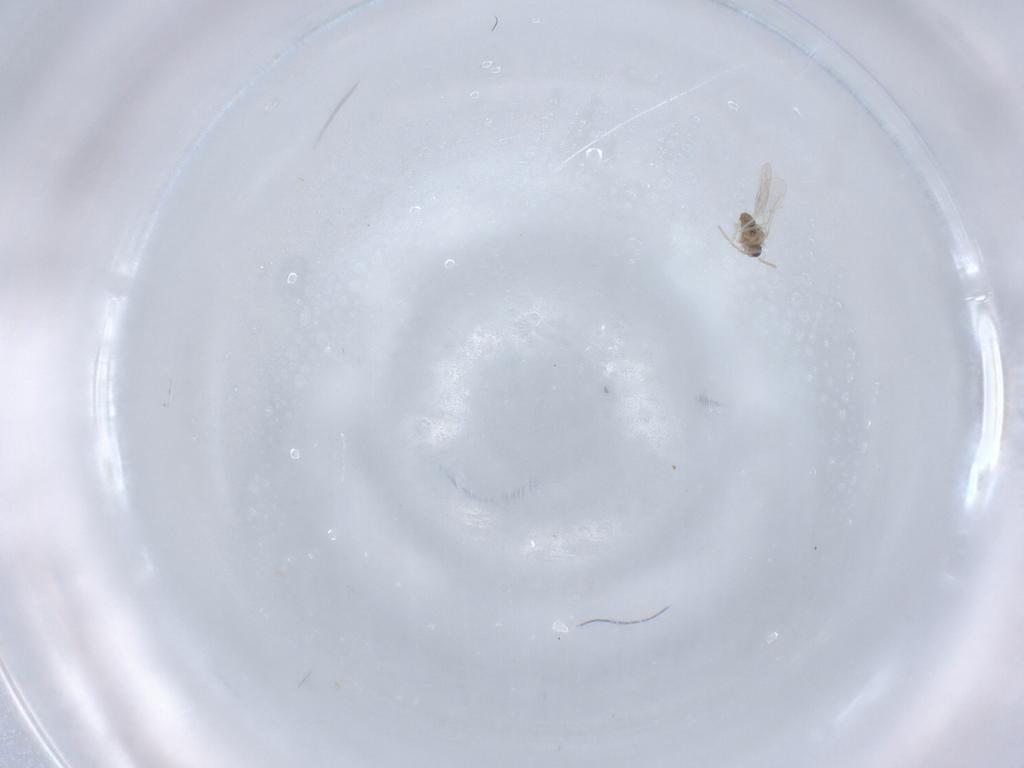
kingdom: Animalia
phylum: Arthropoda
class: Insecta
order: Diptera
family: Cecidomyiidae
